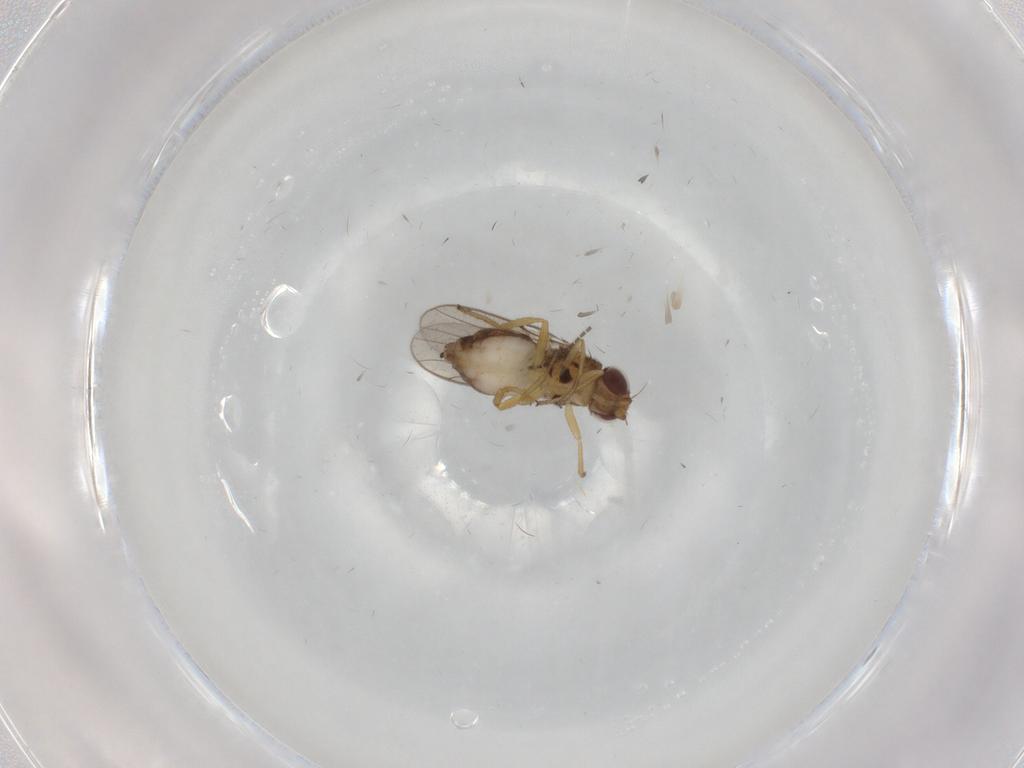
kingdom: Animalia
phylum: Arthropoda
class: Insecta
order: Diptera
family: Chloropidae
